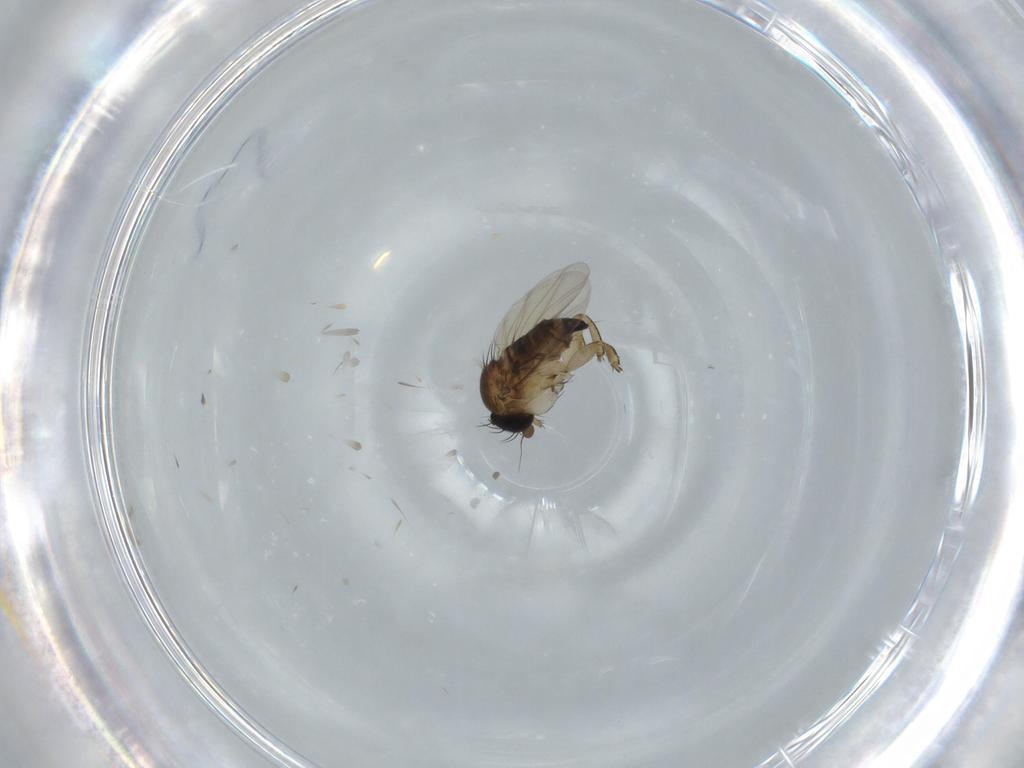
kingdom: Animalia
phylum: Arthropoda
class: Insecta
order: Diptera
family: Phoridae
